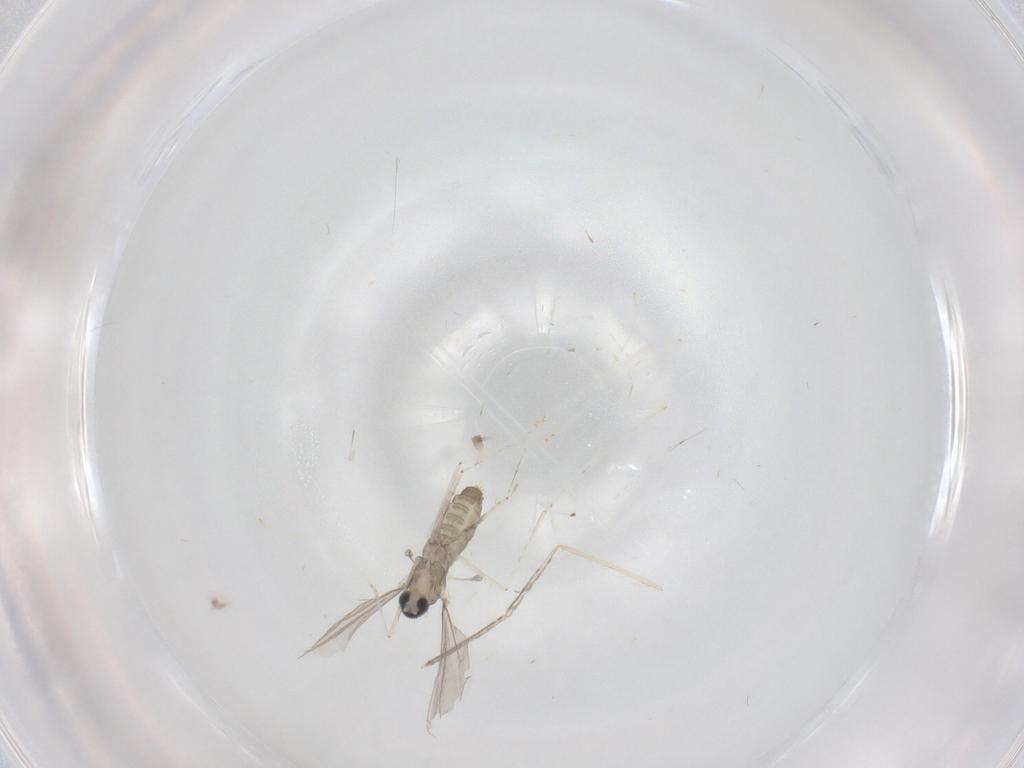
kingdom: Animalia
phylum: Arthropoda
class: Insecta
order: Diptera
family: Cecidomyiidae
